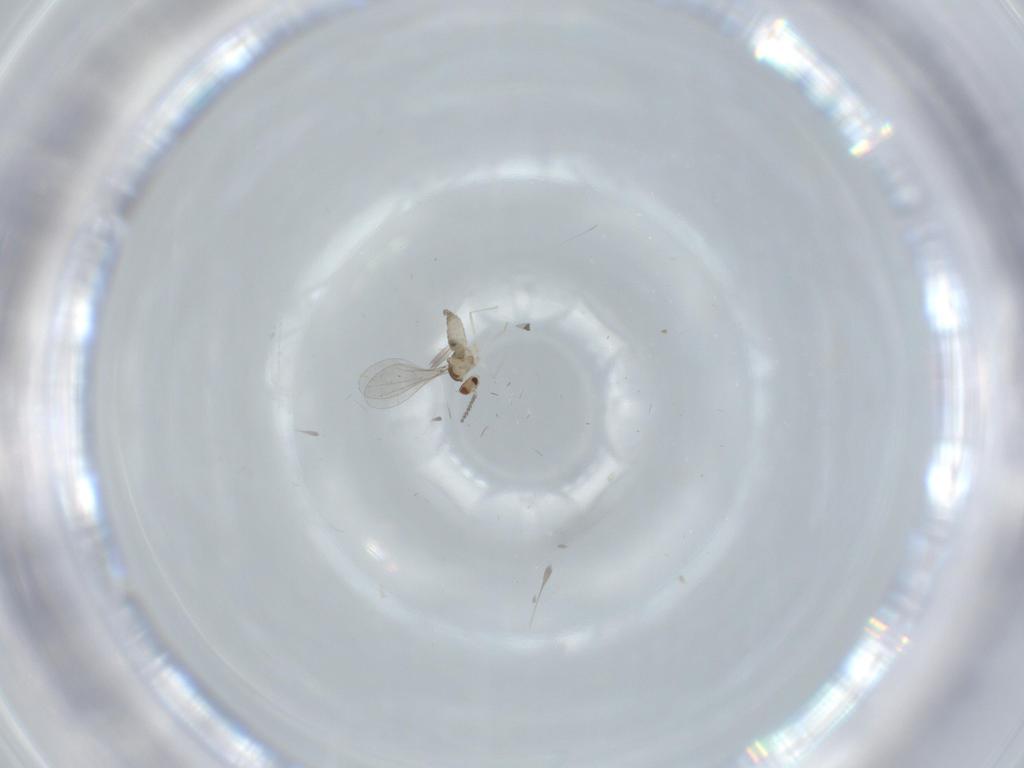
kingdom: Animalia
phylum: Arthropoda
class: Insecta
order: Diptera
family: Cecidomyiidae
